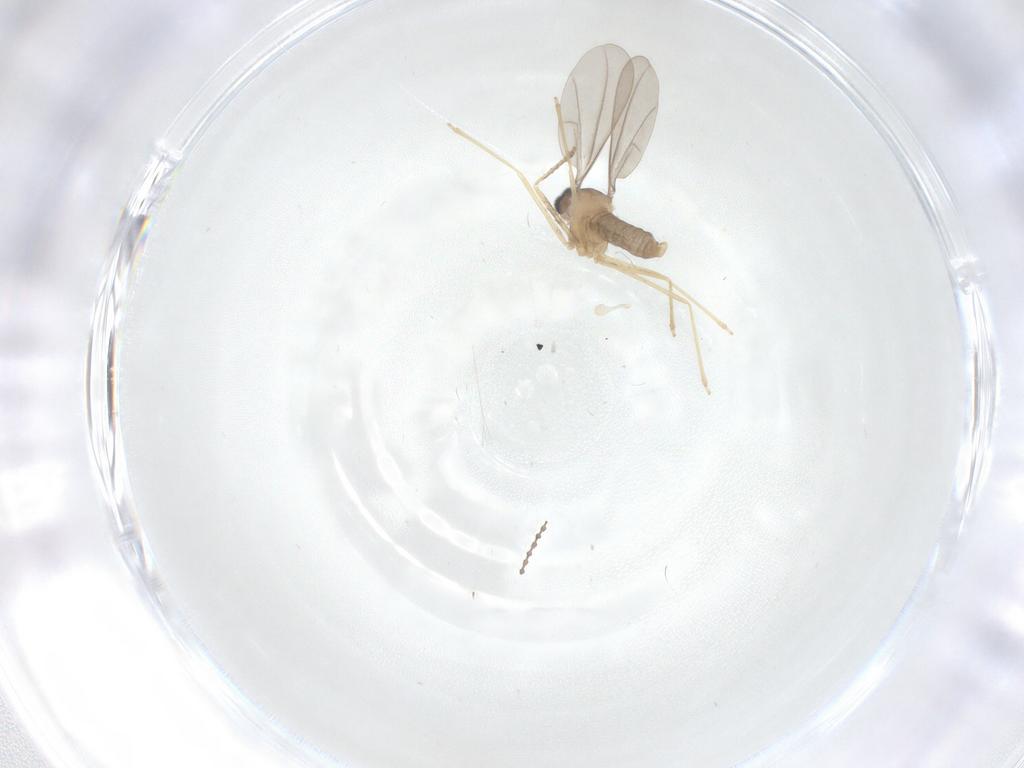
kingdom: Animalia
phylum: Arthropoda
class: Insecta
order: Diptera
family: Cecidomyiidae
